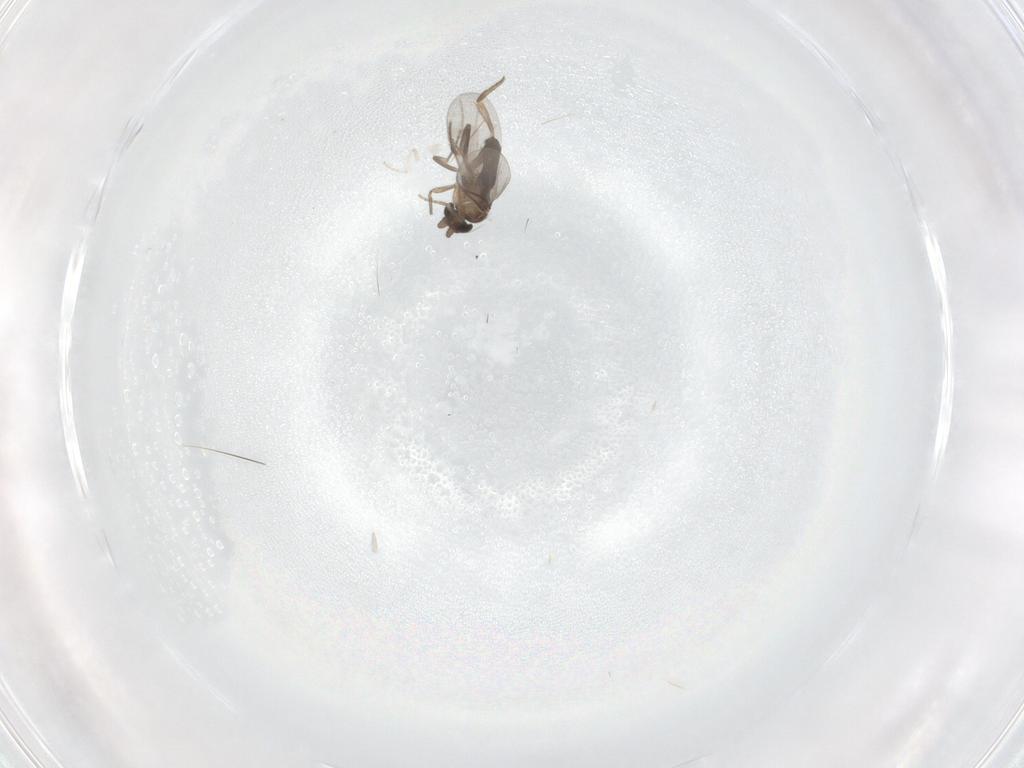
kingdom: Animalia
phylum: Arthropoda
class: Insecta
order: Diptera
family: Cecidomyiidae
